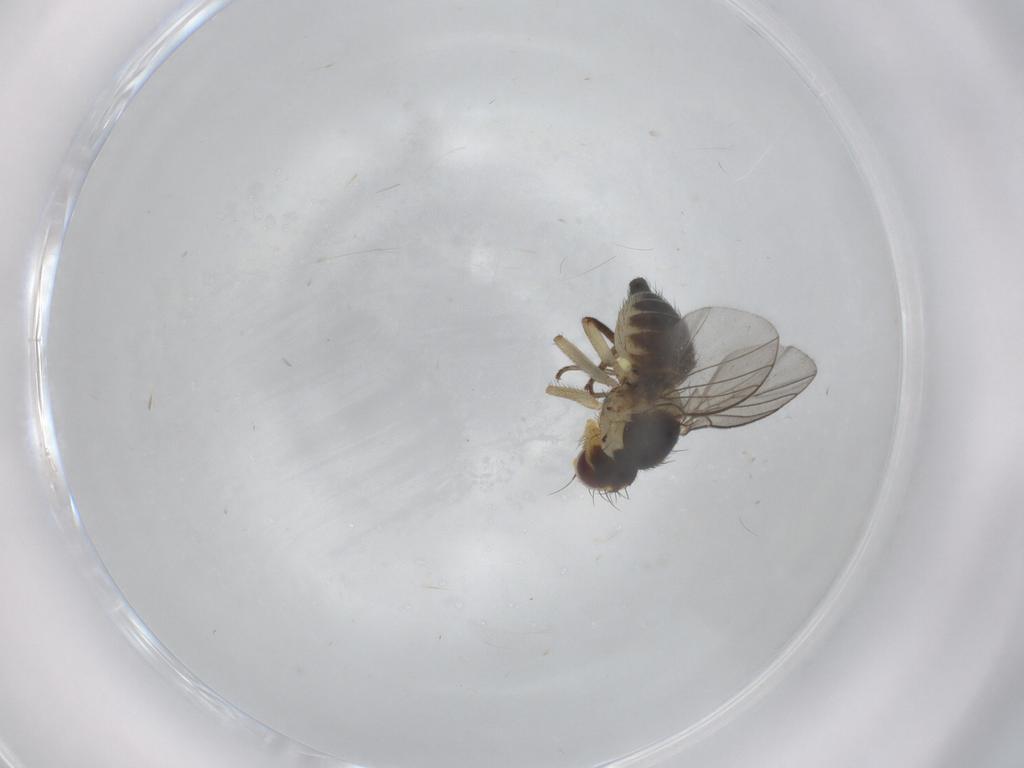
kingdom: Animalia
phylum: Arthropoda
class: Insecta
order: Diptera
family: Agromyzidae
